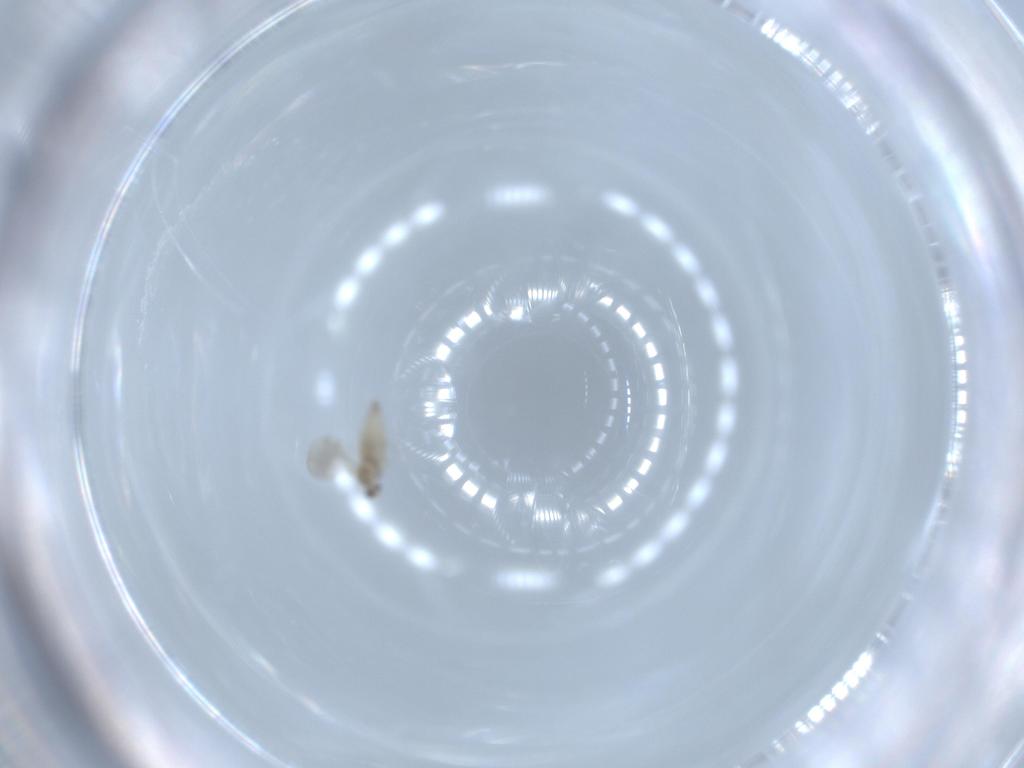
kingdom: Animalia
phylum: Arthropoda
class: Insecta
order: Diptera
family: Cecidomyiidae
